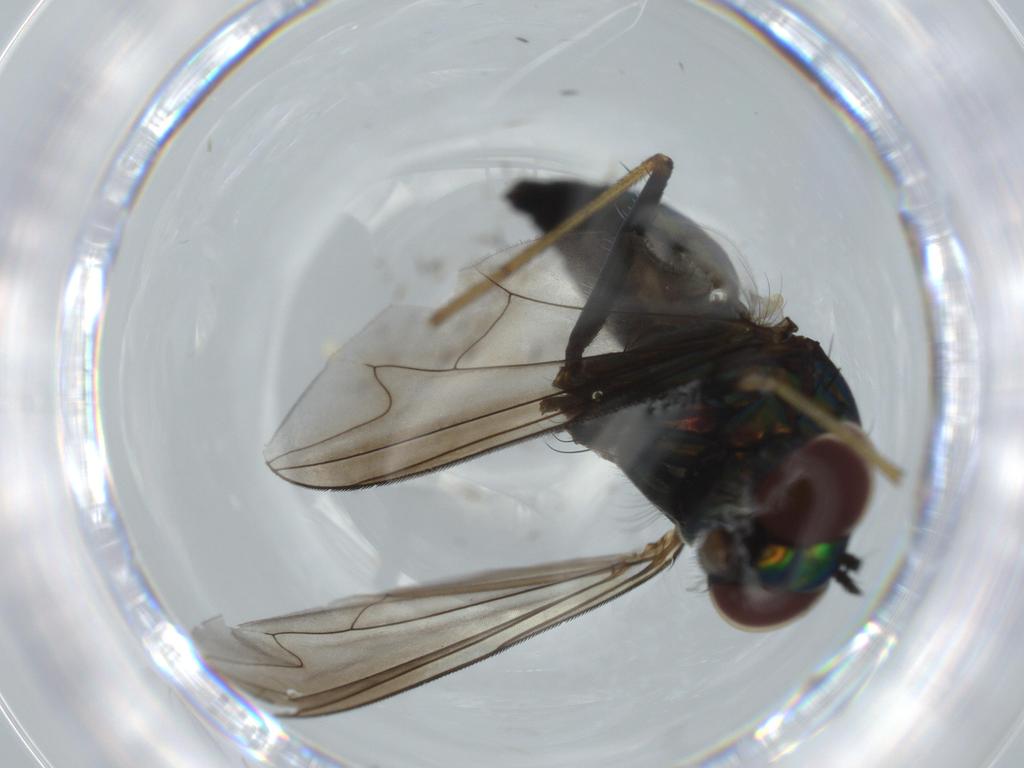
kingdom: Animalia
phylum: Arthropoda
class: Insecta
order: Diptera
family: Dolichopodidae
